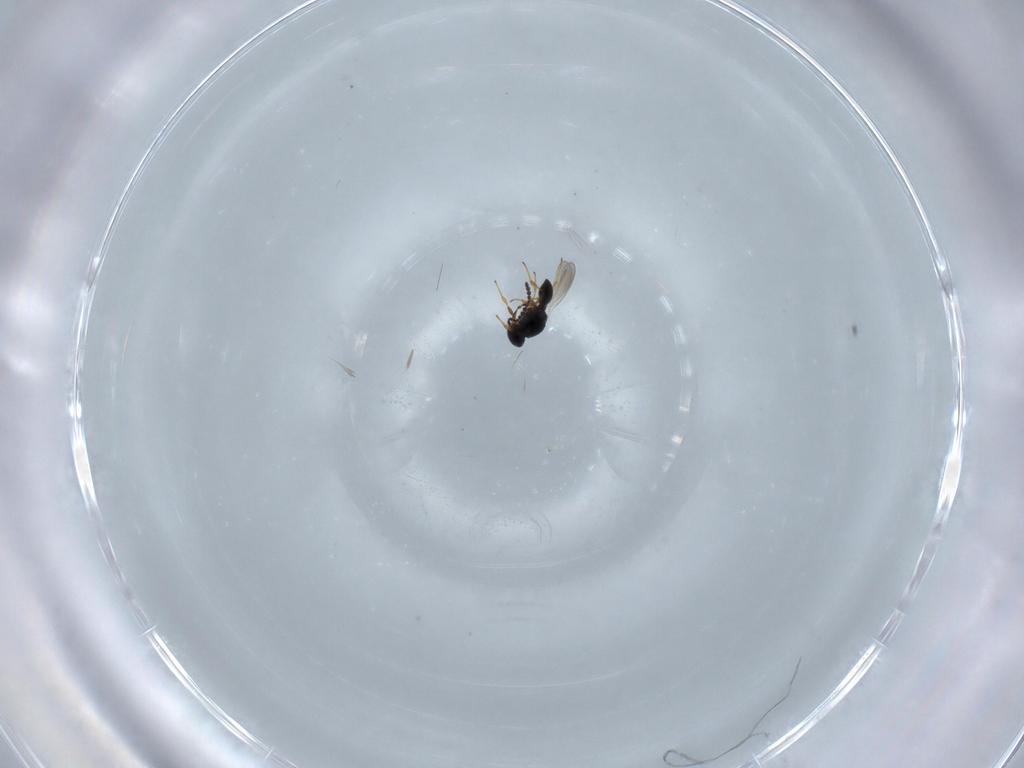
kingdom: Animalia
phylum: Arthropoda
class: Insecta
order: Hymenoptera
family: Platygastridae
